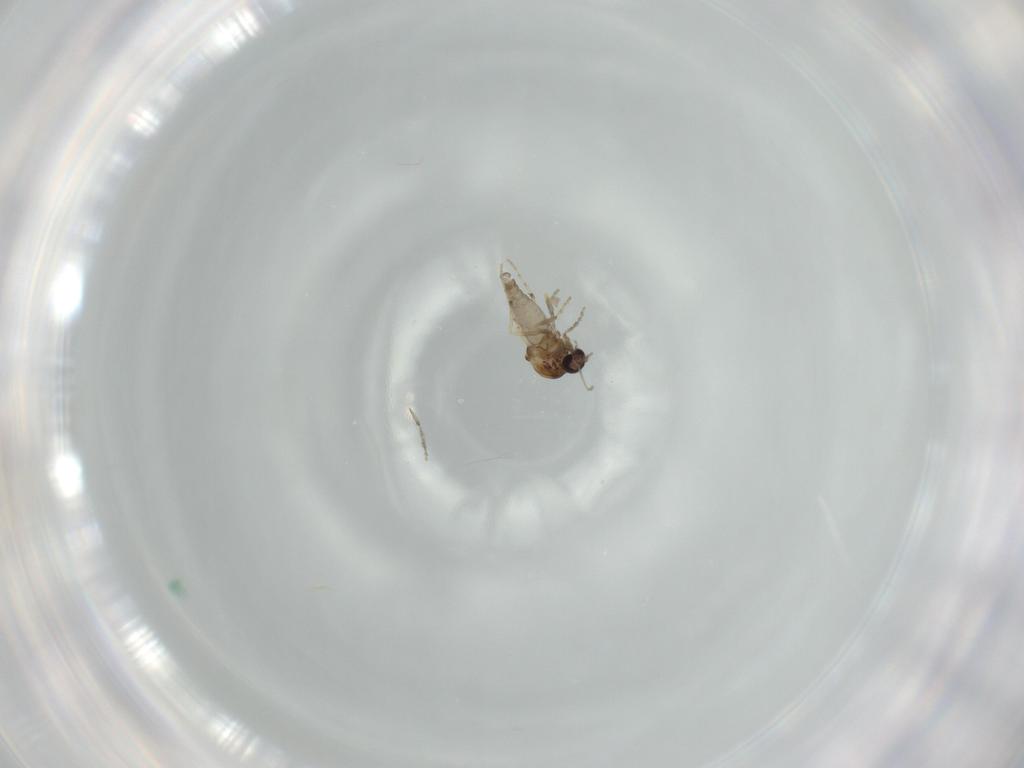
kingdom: Animalia
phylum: Arthropoda
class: Insecta
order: Diptera
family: Ceratopogonidae
